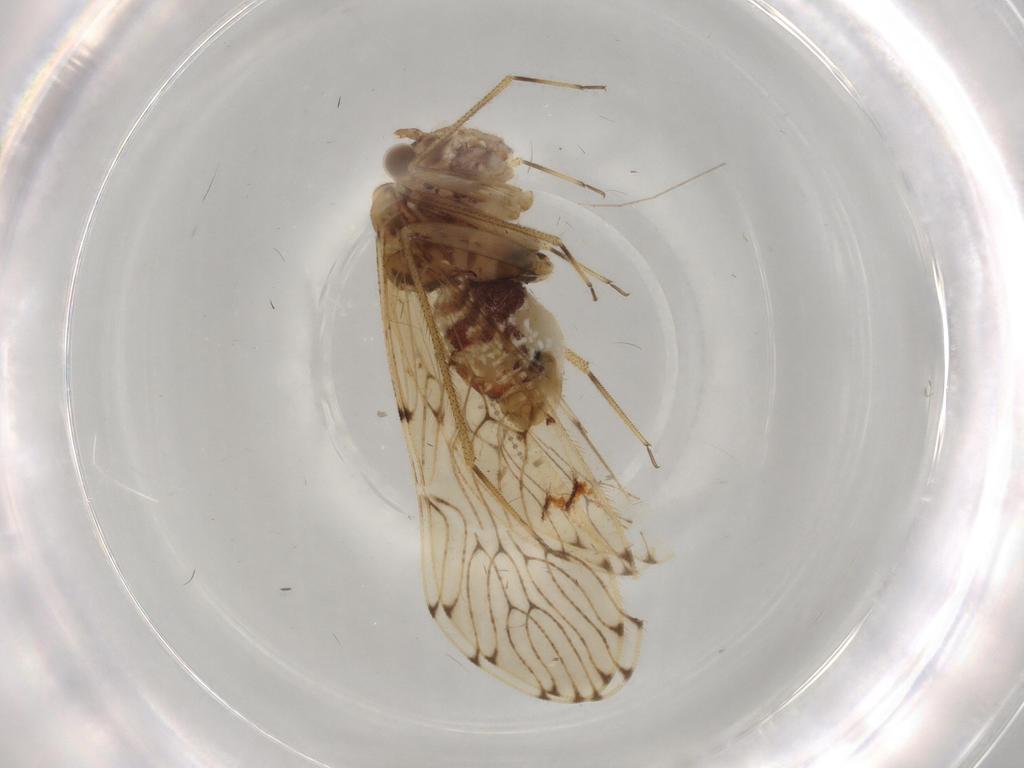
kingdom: Animalia
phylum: Arthropoda
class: Insecta
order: Psocodea
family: Epipsocidae
